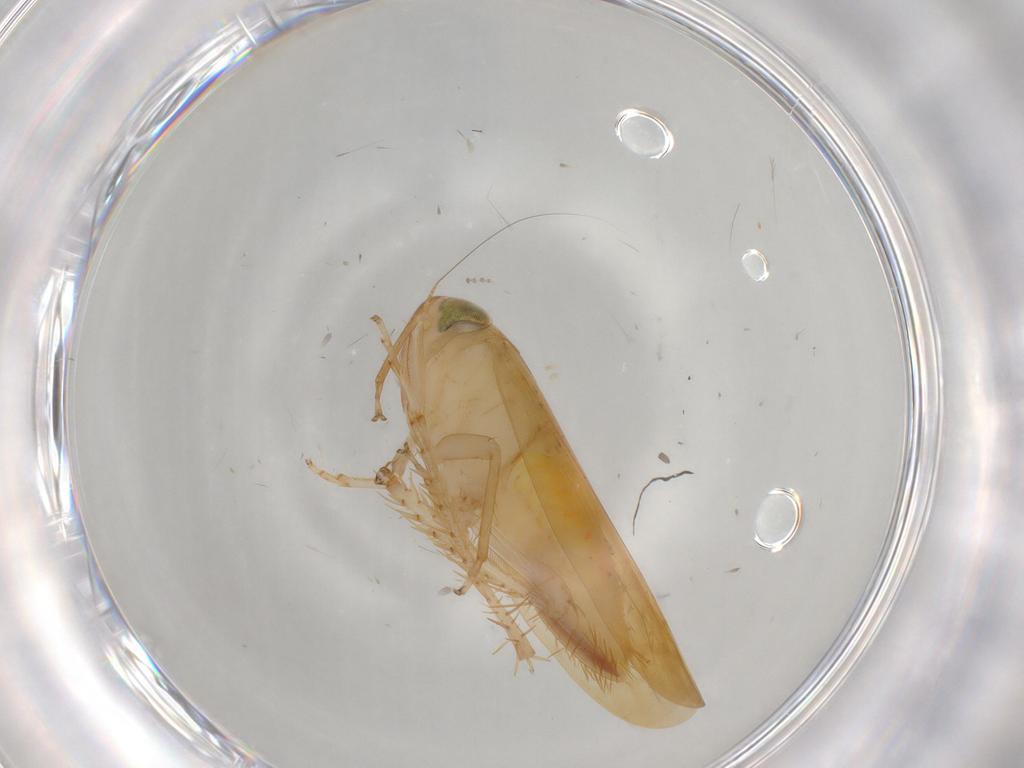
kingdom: Animalia
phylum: Arthropoda
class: Insecta
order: Hemiptera
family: Cicadellidae
